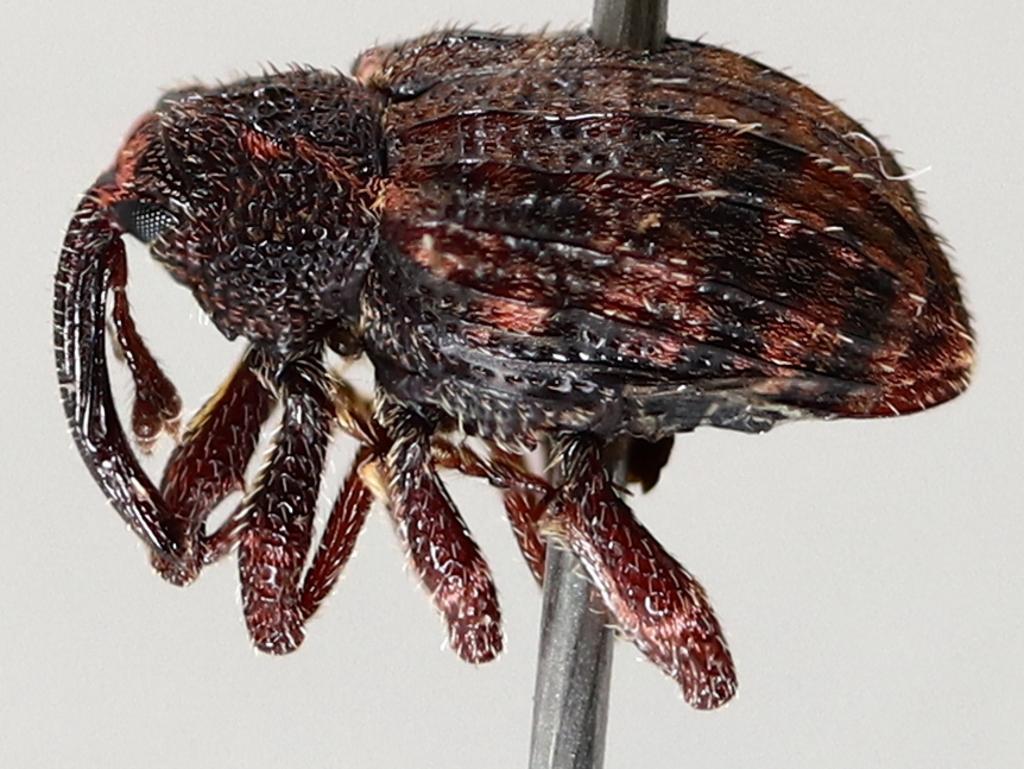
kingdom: Animalia
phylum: Arthropoda
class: Insecta
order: Diptera
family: Psychodidae
